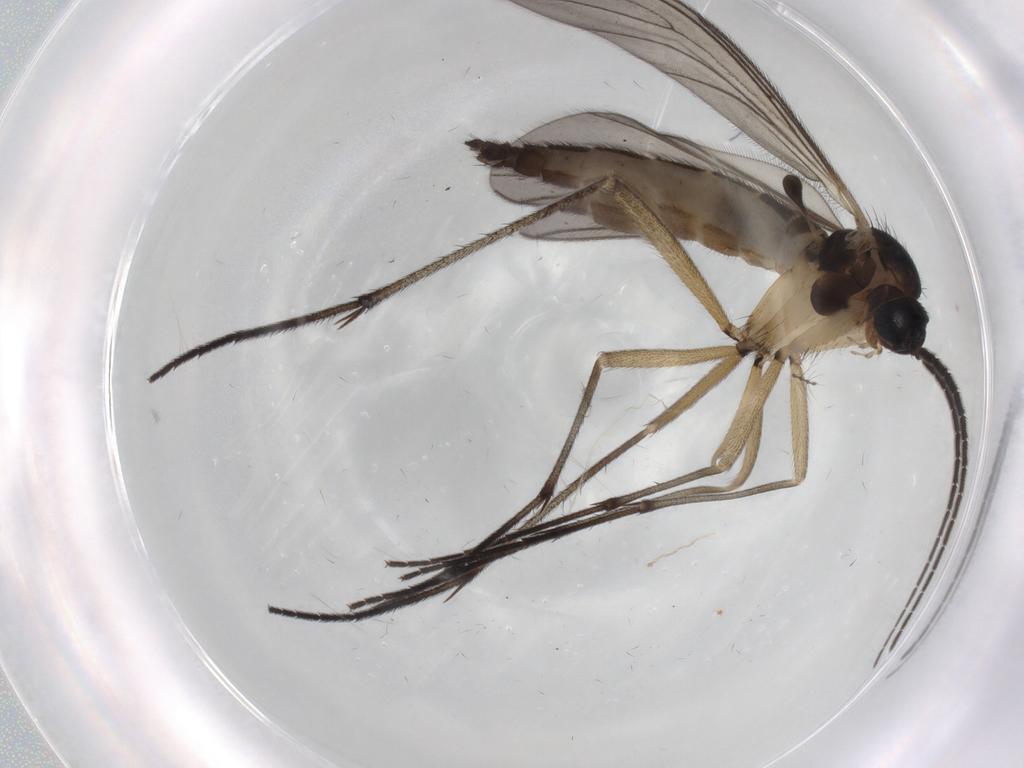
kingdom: Animalia
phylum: Arthropoda
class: Insecta
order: Diptera
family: Sciaridae
